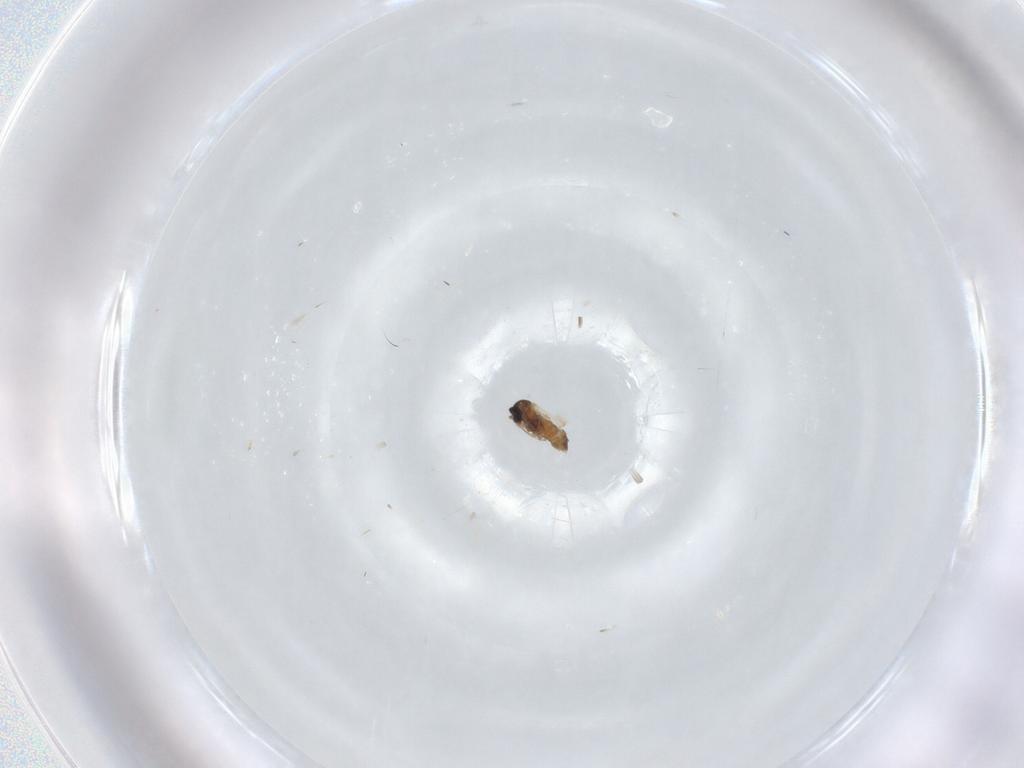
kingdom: Animalia
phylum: Arthropoda
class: Insecta
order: Diptera
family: Cecidomyiidae
